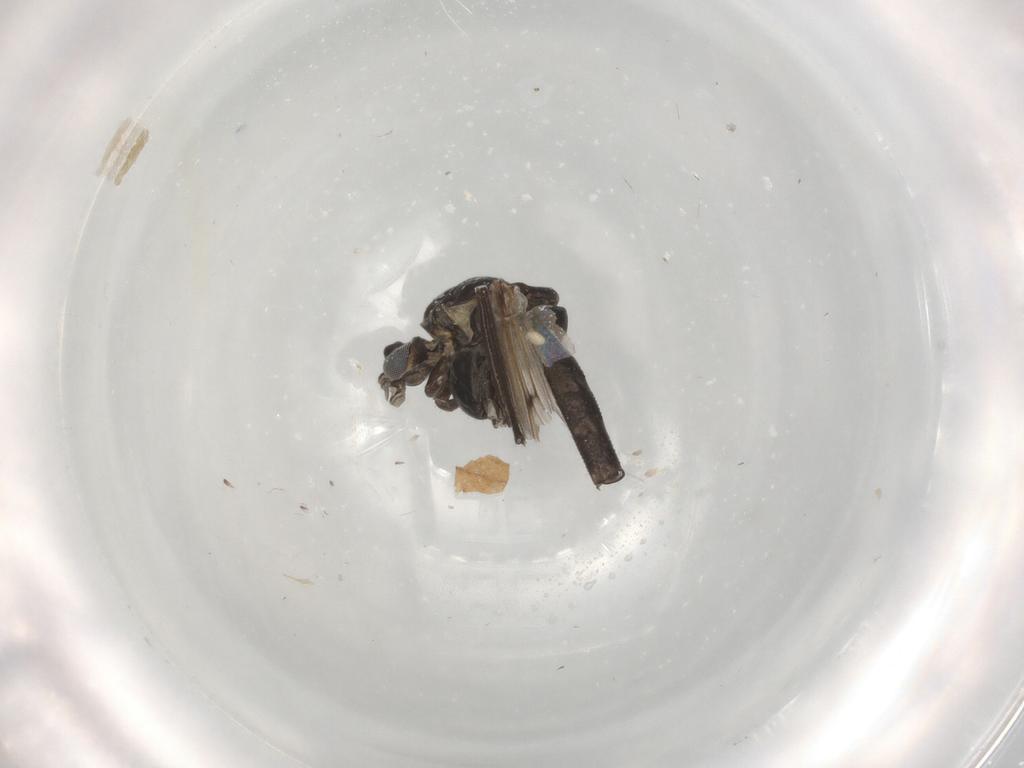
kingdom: Animalia
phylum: Arthropoda
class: Insecta
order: Diptera
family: Chironomidae
